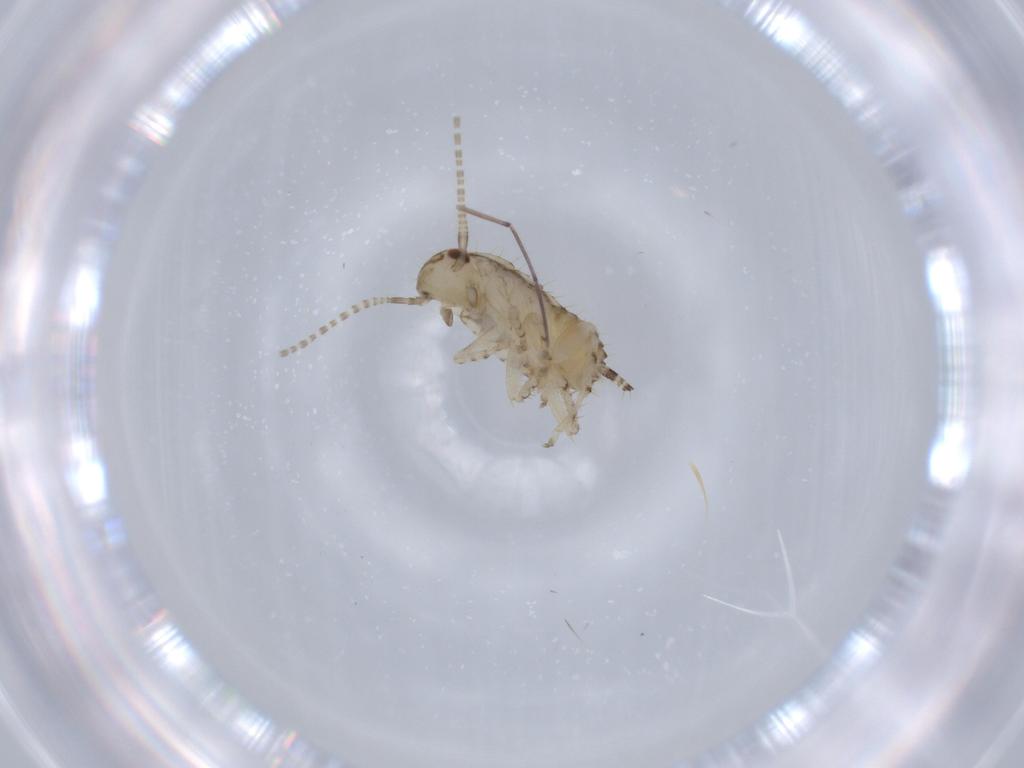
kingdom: Animalia
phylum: Arthropoda
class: Insecta
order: Blattodea
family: Ectobiidae
